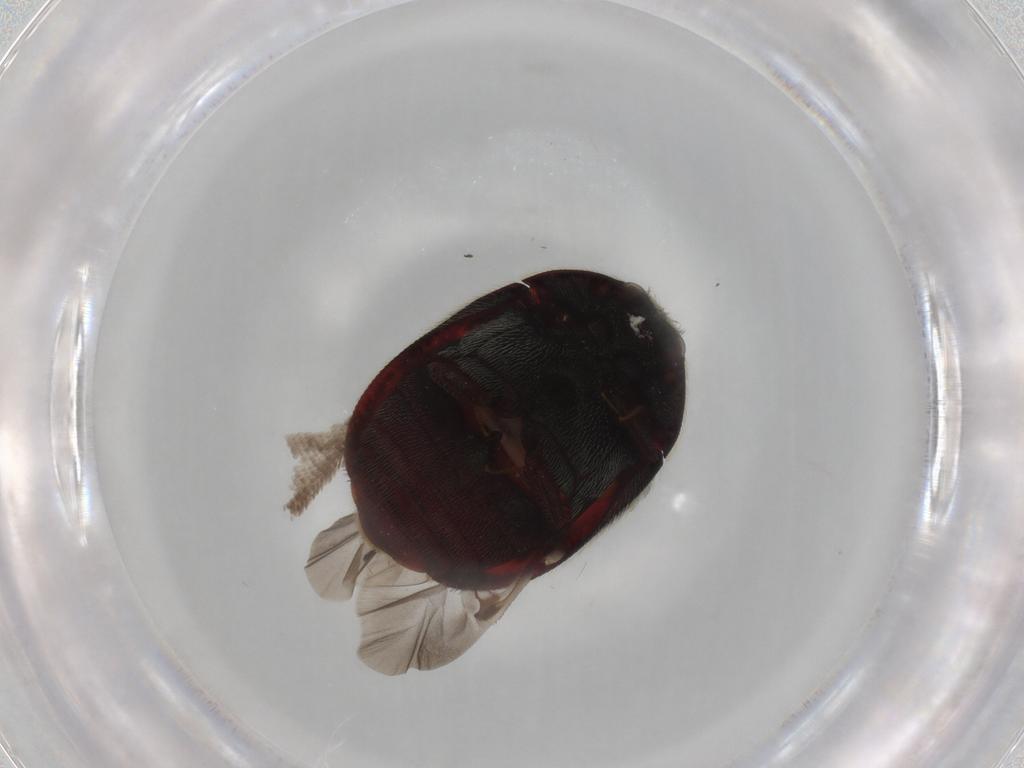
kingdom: Animalia
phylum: Arthropoda
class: Insecta
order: Coleoptera
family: Dermestidae
